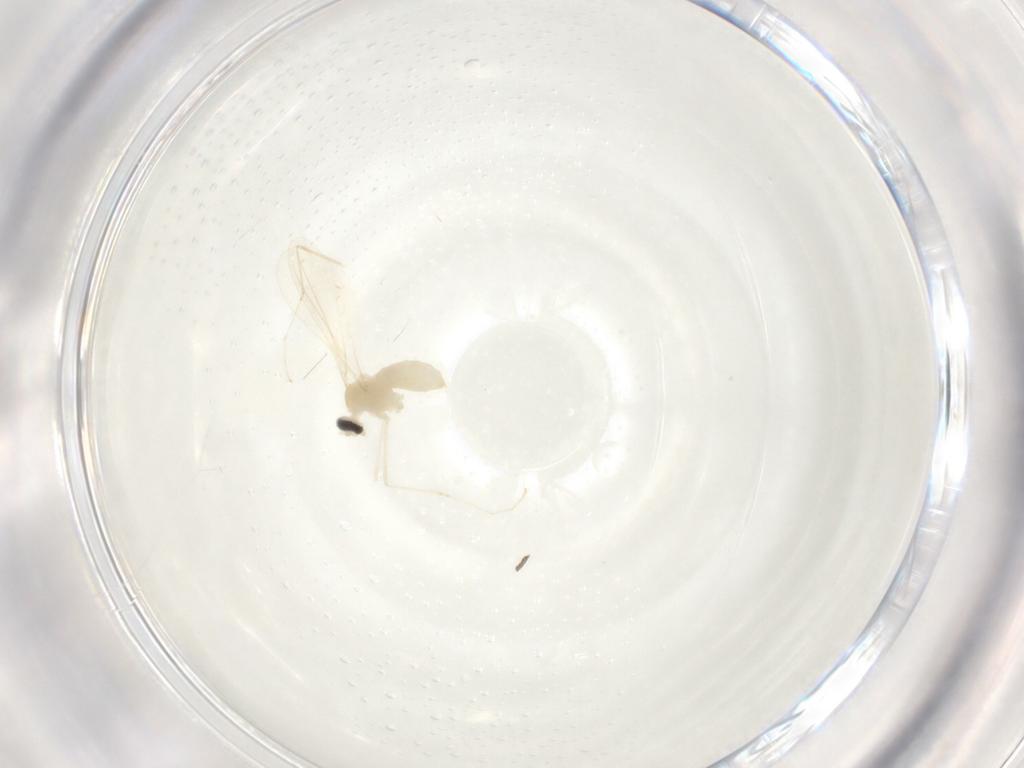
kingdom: Animalia
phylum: Arthropoda
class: Insecta
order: Diptera
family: Cecidomyiidae
